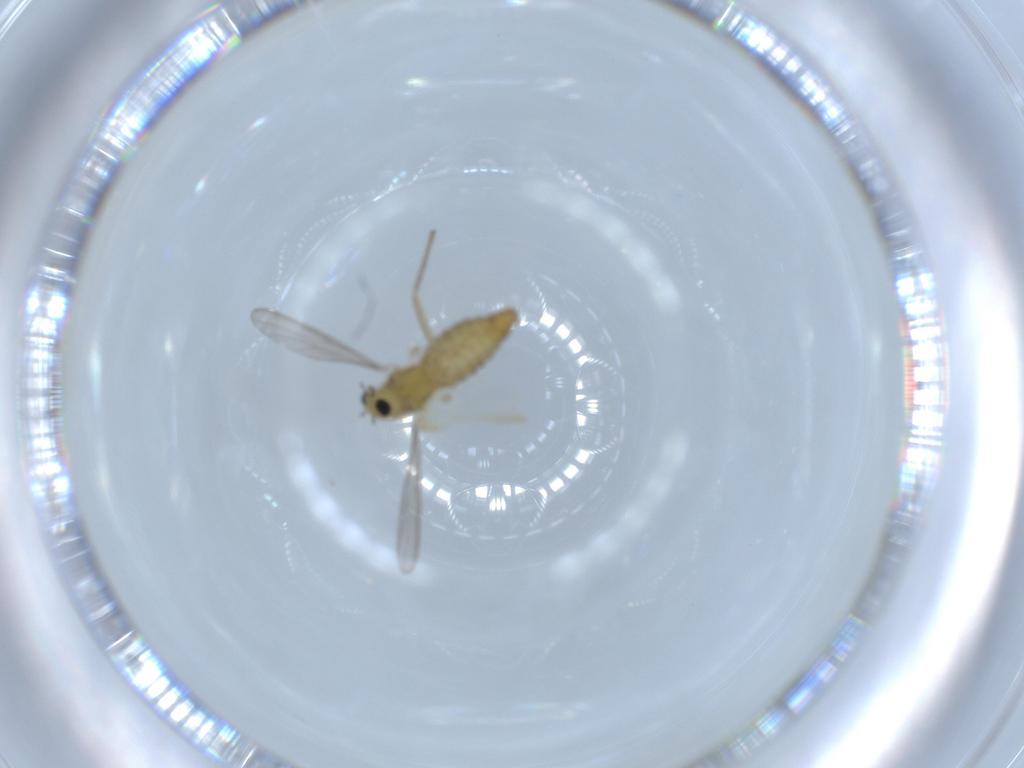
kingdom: Animalia
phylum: Arthropoda
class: Insecta
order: Diptera
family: Chironomidae
